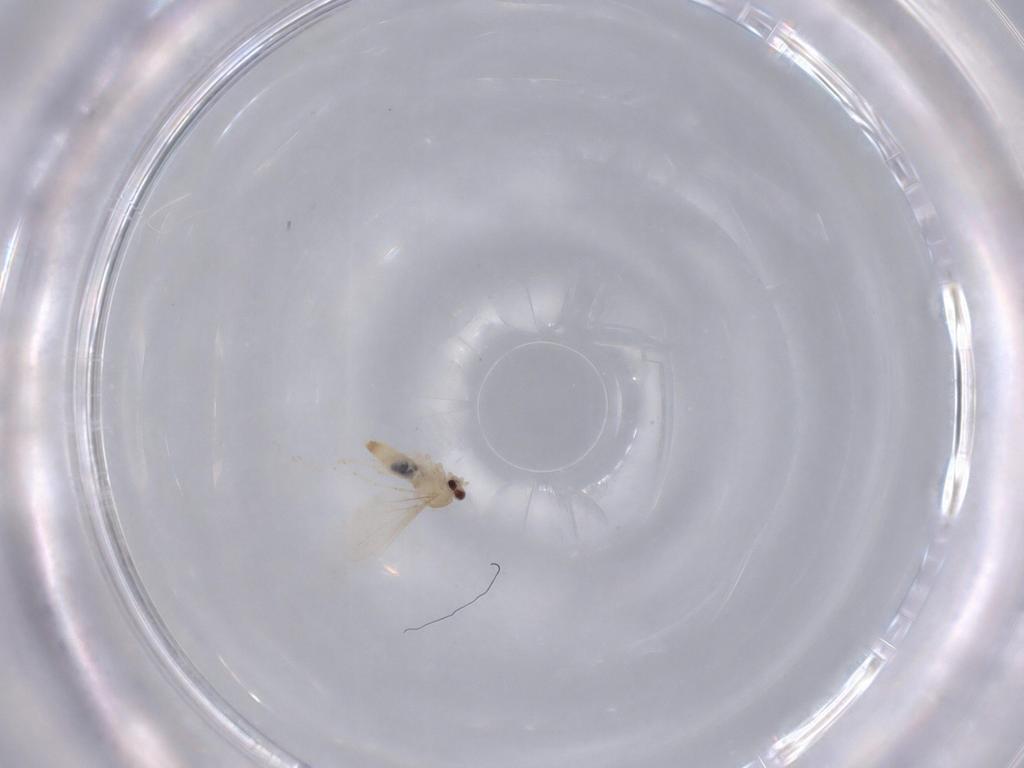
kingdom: Animalia
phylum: Arthropoda
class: Insecta
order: Diptera
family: Cecidomyiidae
